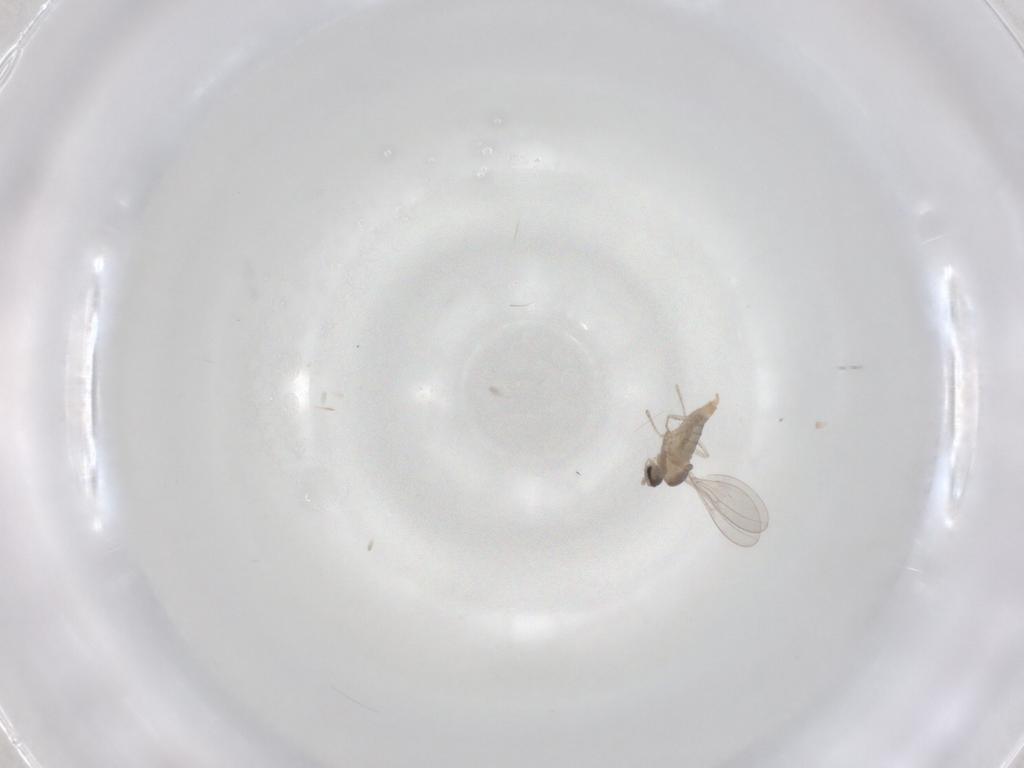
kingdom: Animalia
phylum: Arthropoda
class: Insecta
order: Diptera
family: Cecidomyiidae
